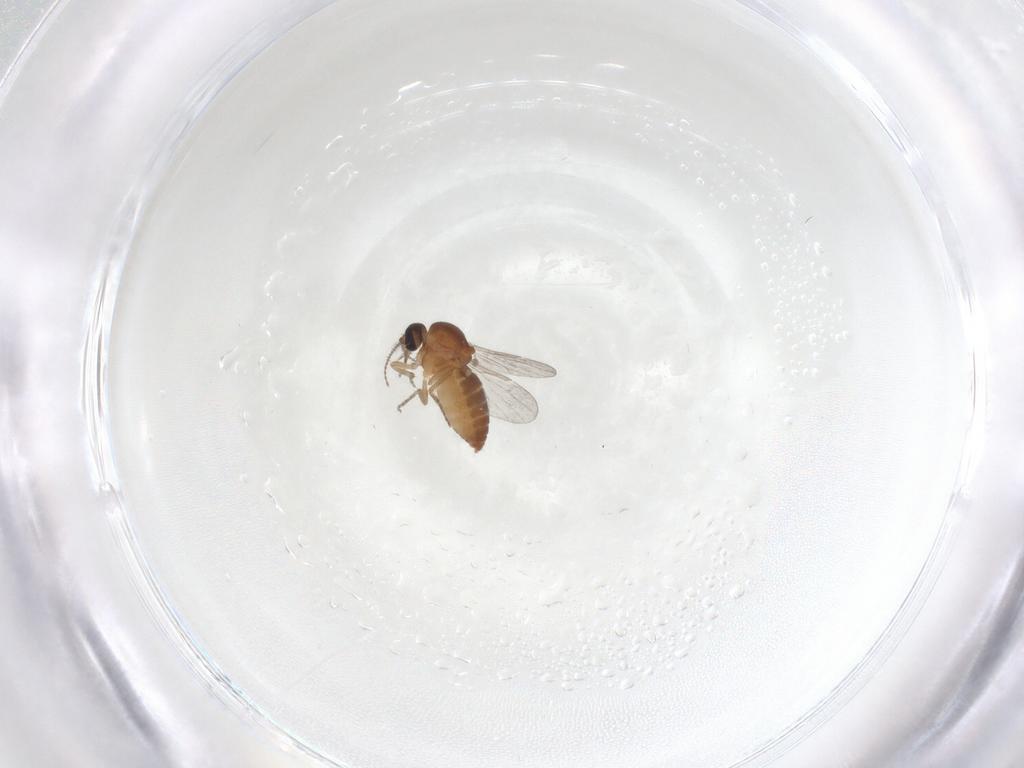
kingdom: Animalia
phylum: Arthropoda
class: Insecta
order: Diptera
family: Ceratopogonidae
